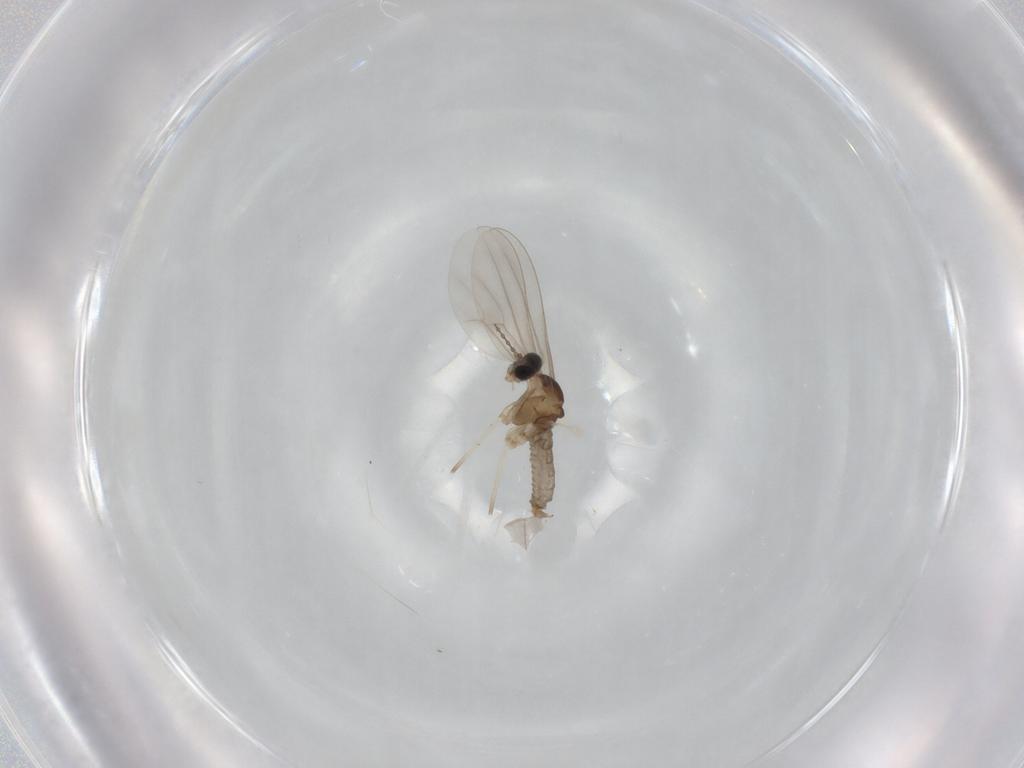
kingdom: Animalia
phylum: Arthropoda
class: Insecta
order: Diptera
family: Cecidomyiidae
